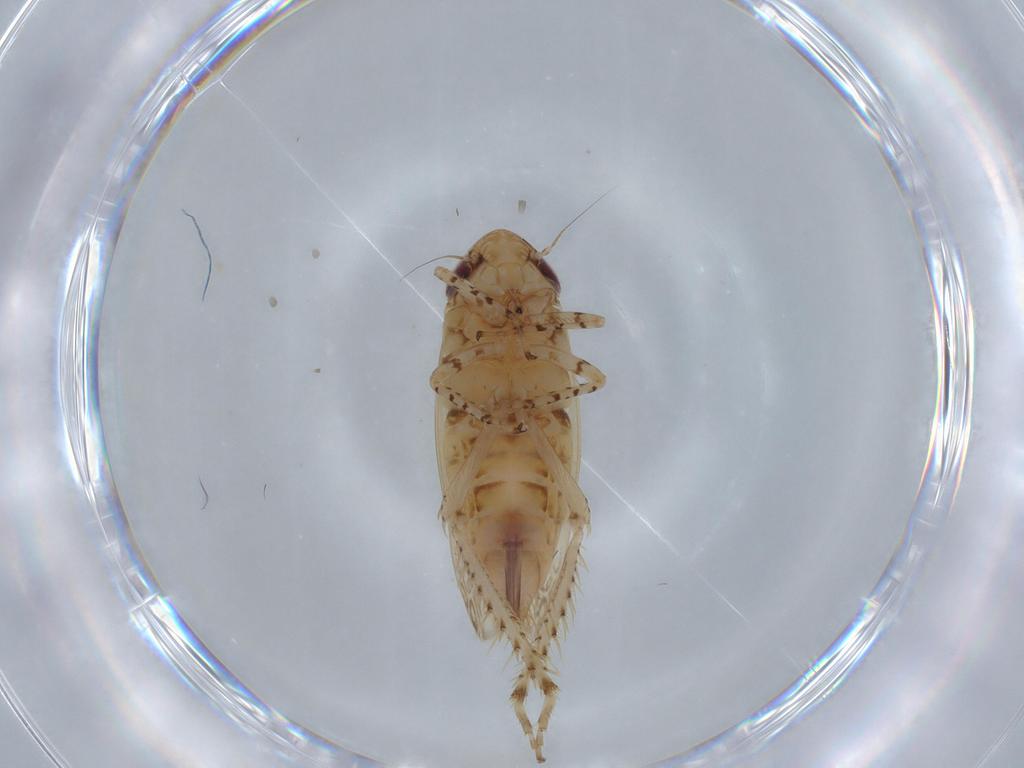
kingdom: Animalia
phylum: Arthropoda
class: Insecta
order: Hemiptera
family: Cicadellidae
